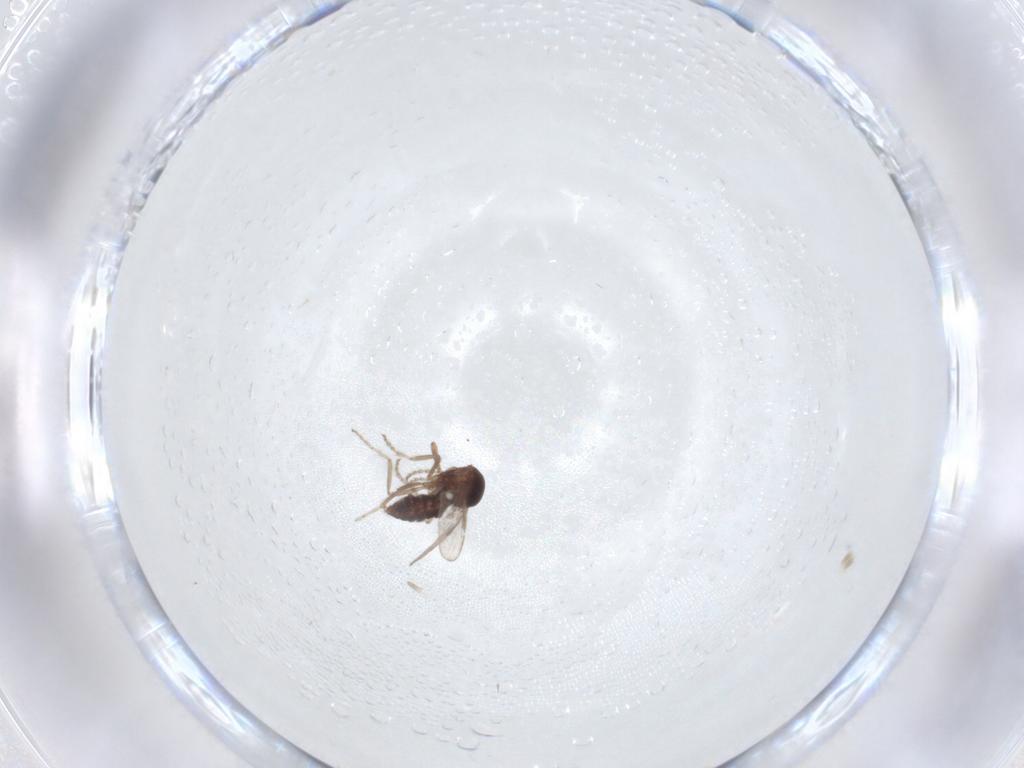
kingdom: Animalia
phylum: Arthropoda
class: Insecta
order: Diptera
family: Ceratopogonidae
